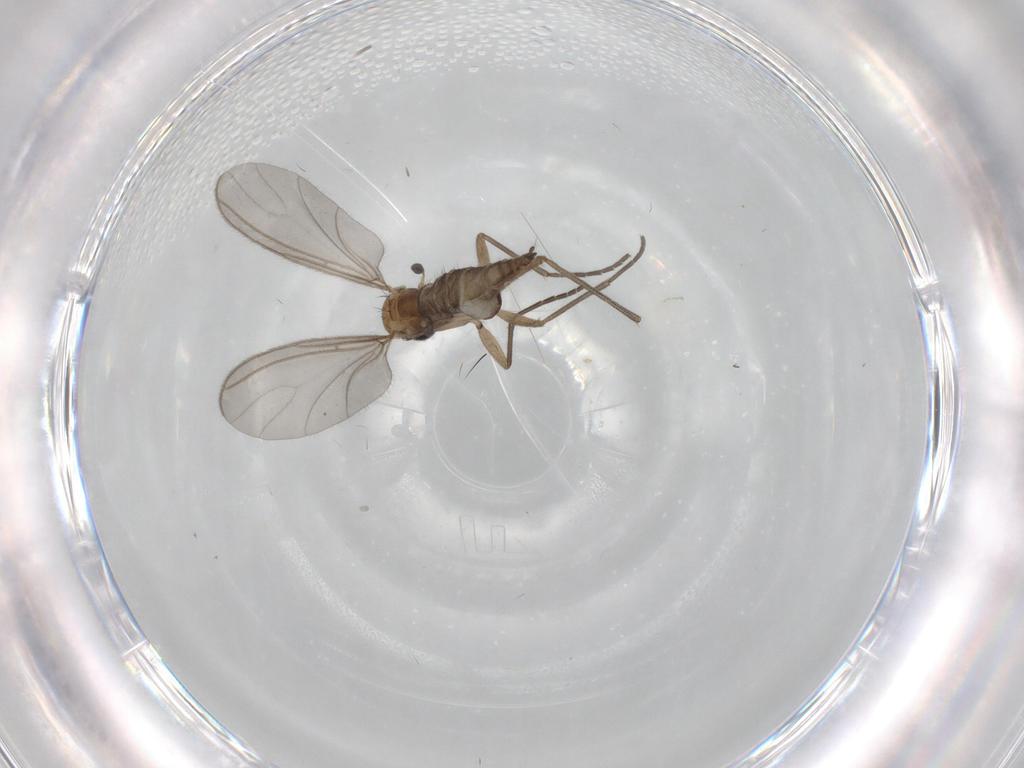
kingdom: Animalia
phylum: Arthropoda
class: Insecta
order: Diptera
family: Sciaridae
